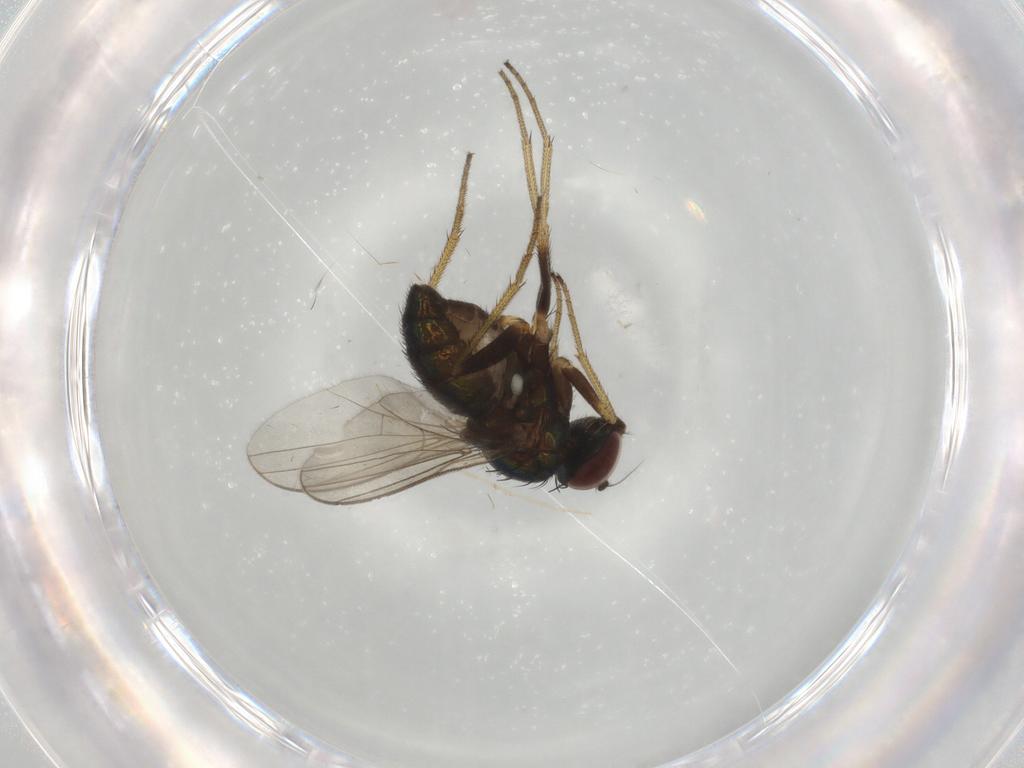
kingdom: Animalia
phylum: Arthropoda
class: Insecta
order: Diptera
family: Dolichopodidae
